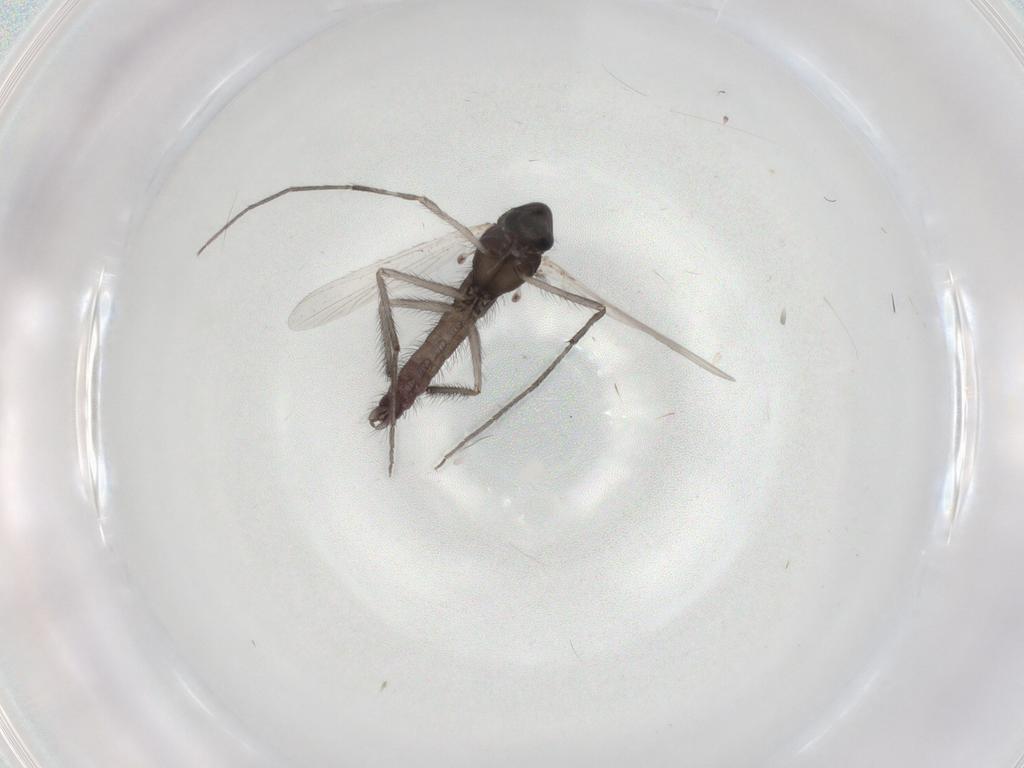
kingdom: Animalia
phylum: Arthropoda
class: Insecta
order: Diptera
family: Chironomidae
